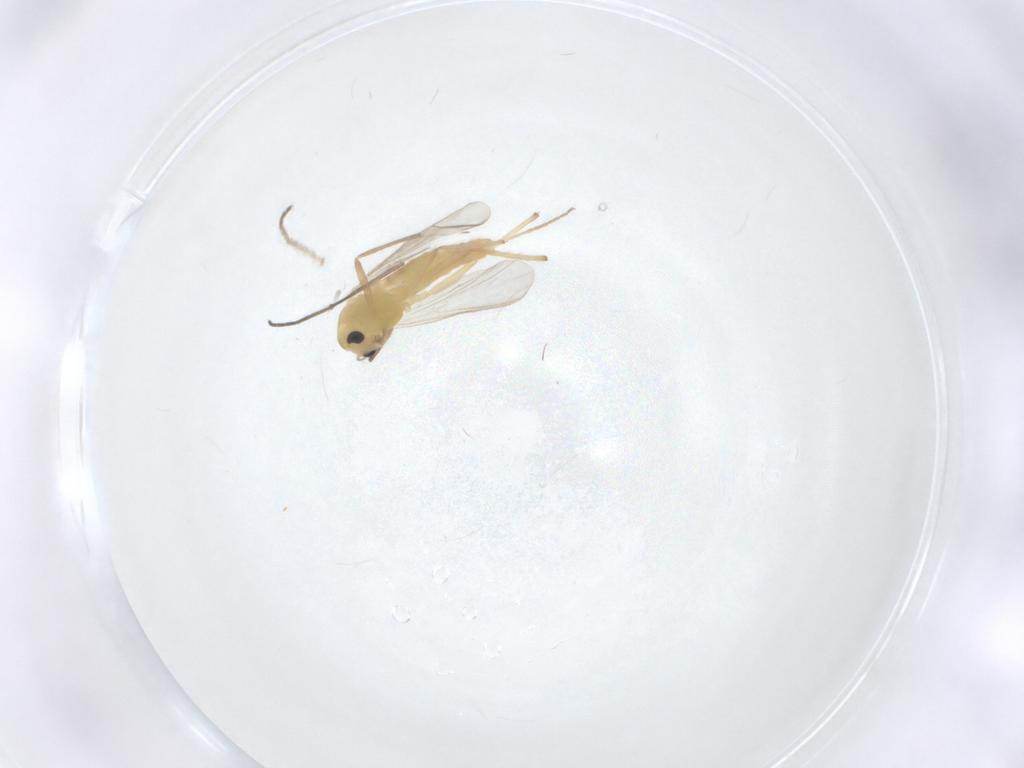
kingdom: Animalia
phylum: Arthropoda
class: Insecta
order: Diptera
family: Chironomidae
